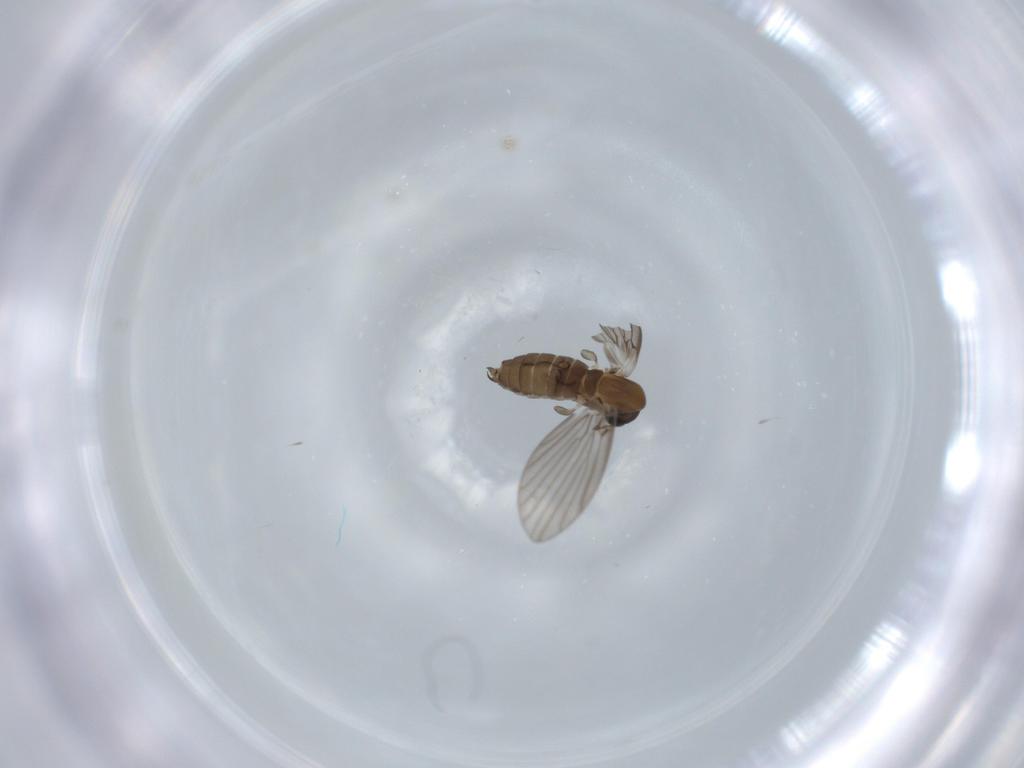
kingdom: Animalia
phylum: Arthropoda
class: Insecta
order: Diptera
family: Psychodidae
